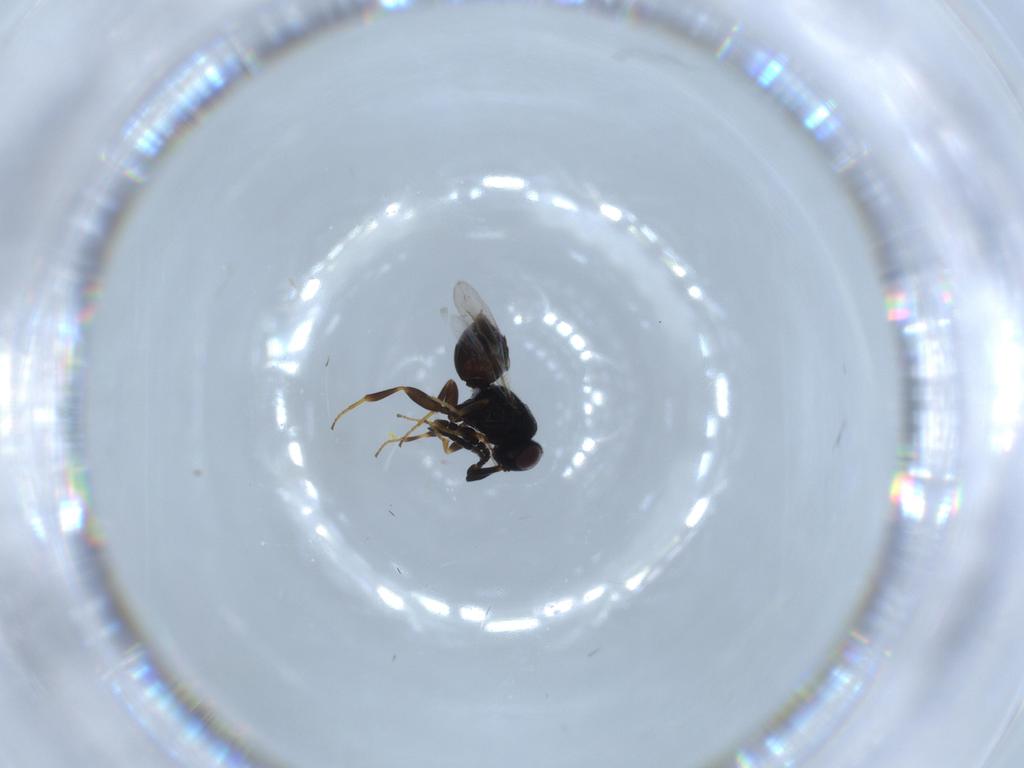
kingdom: Animalia
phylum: Arthropoda
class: Insecta
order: Hymenoptera
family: Megaspilidae
